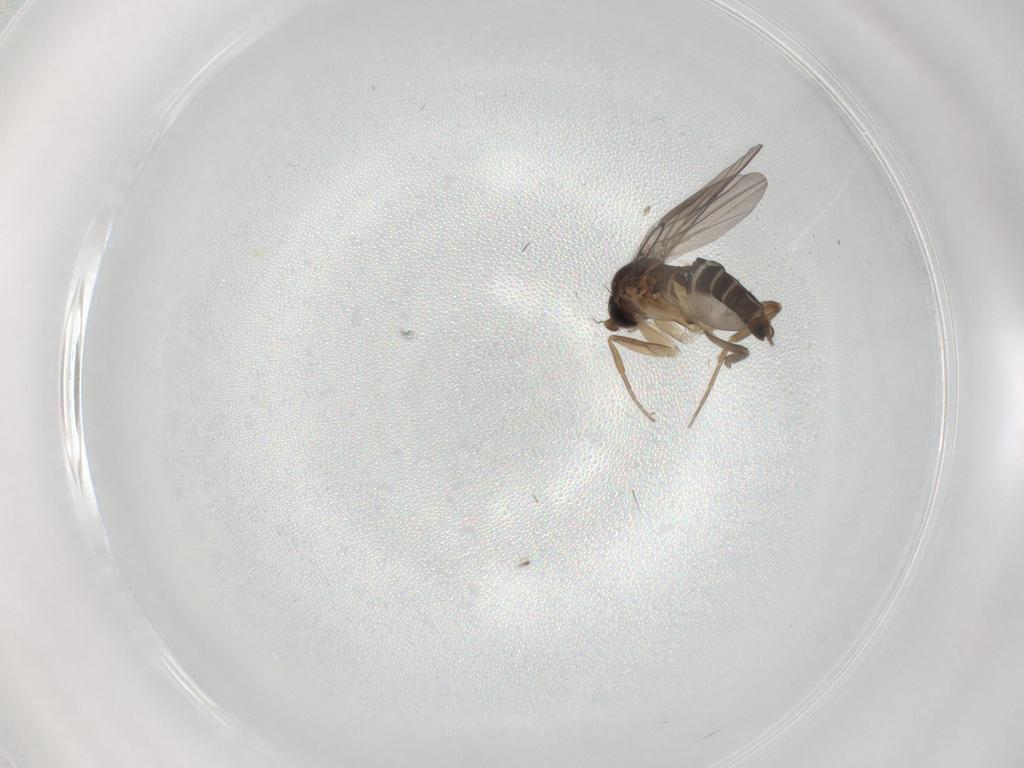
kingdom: Animalia
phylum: Arthropoda
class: Insecta
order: Diptera
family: Phoridae
